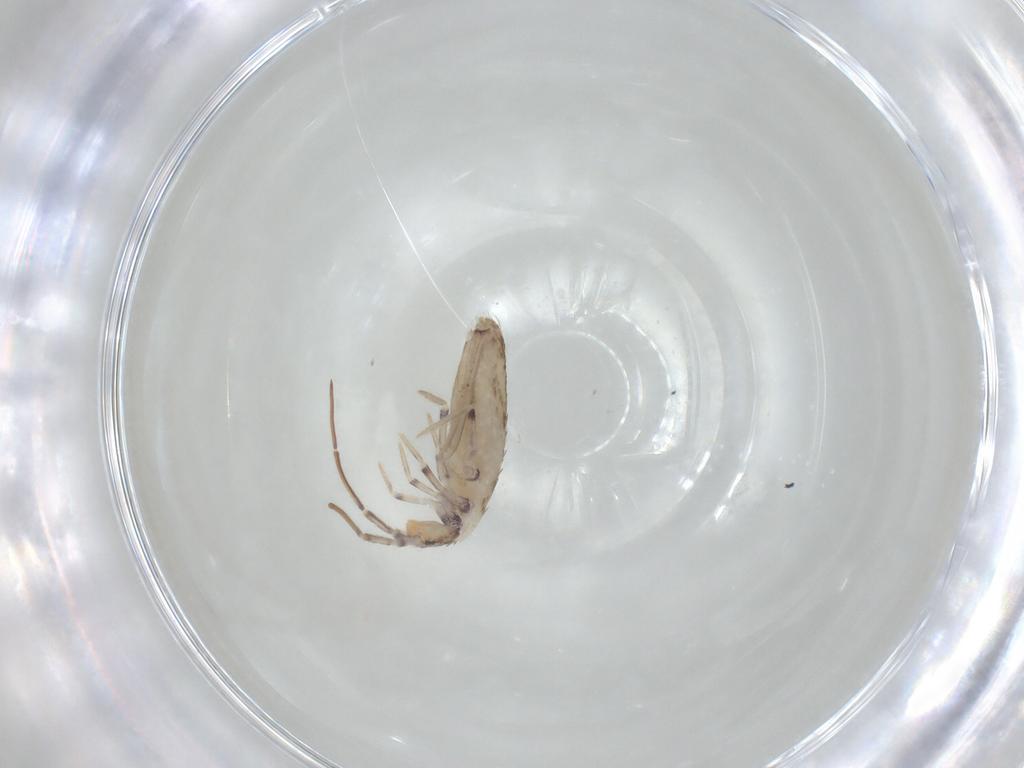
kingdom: Animalia
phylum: Arthropoda
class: Collembola
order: Entomobryomorpha
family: Entomobryidae
